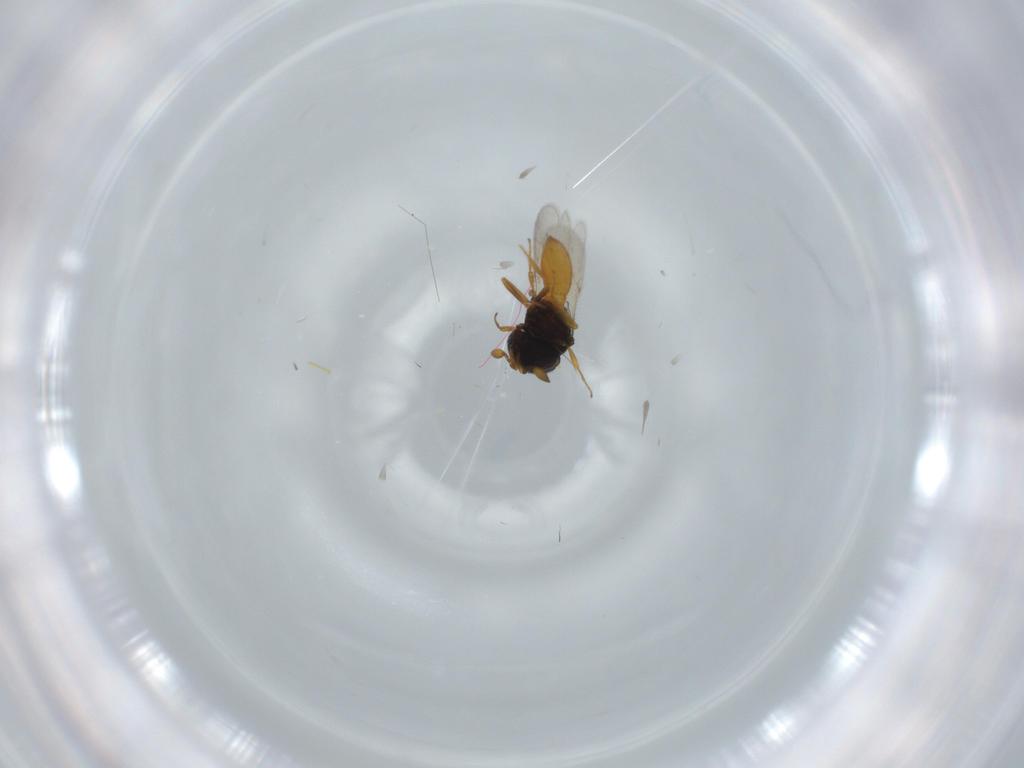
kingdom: Animalia
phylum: Arthropoda
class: Insecta
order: Hymenoptera
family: Scelionidae
